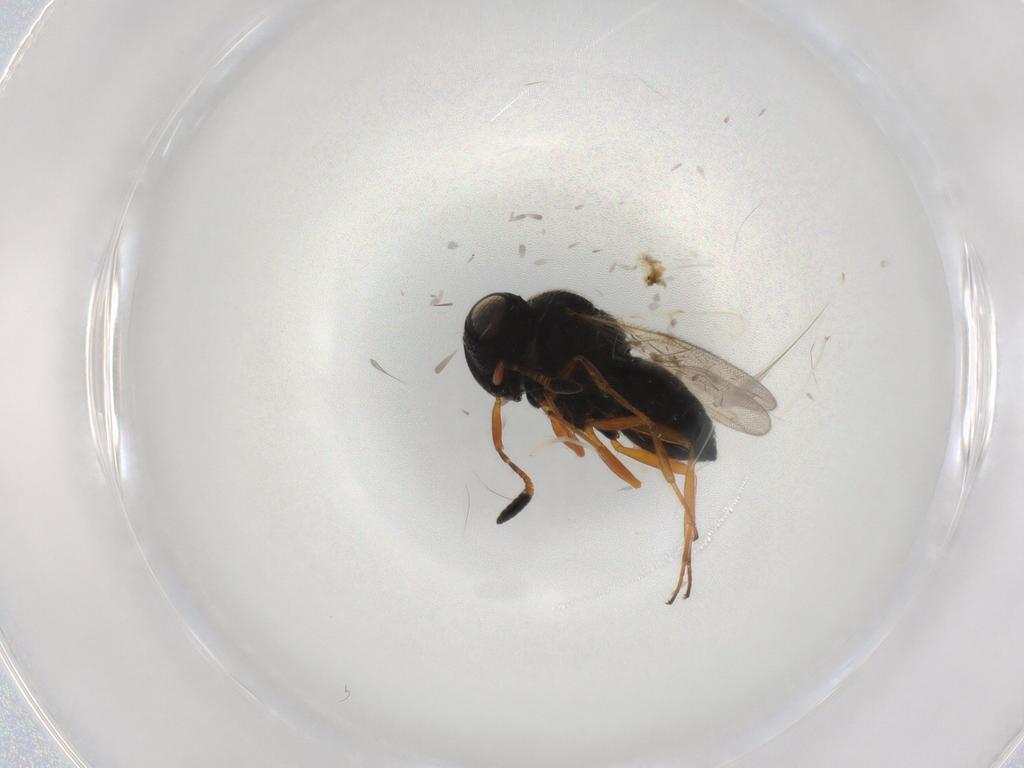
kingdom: Animalia
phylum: Arthropoda
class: Insecta
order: Hymenoptera
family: Scelionidae
